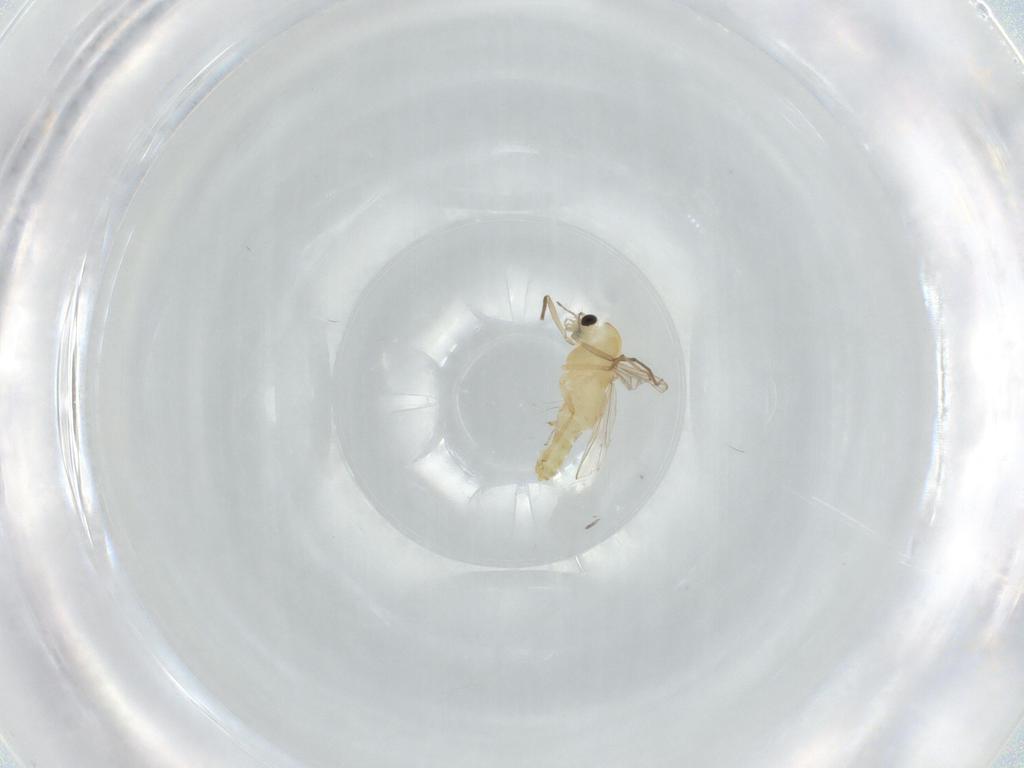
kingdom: Animalia
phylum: Arthropoda
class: Insecta
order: Diptera
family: Chironomidae
